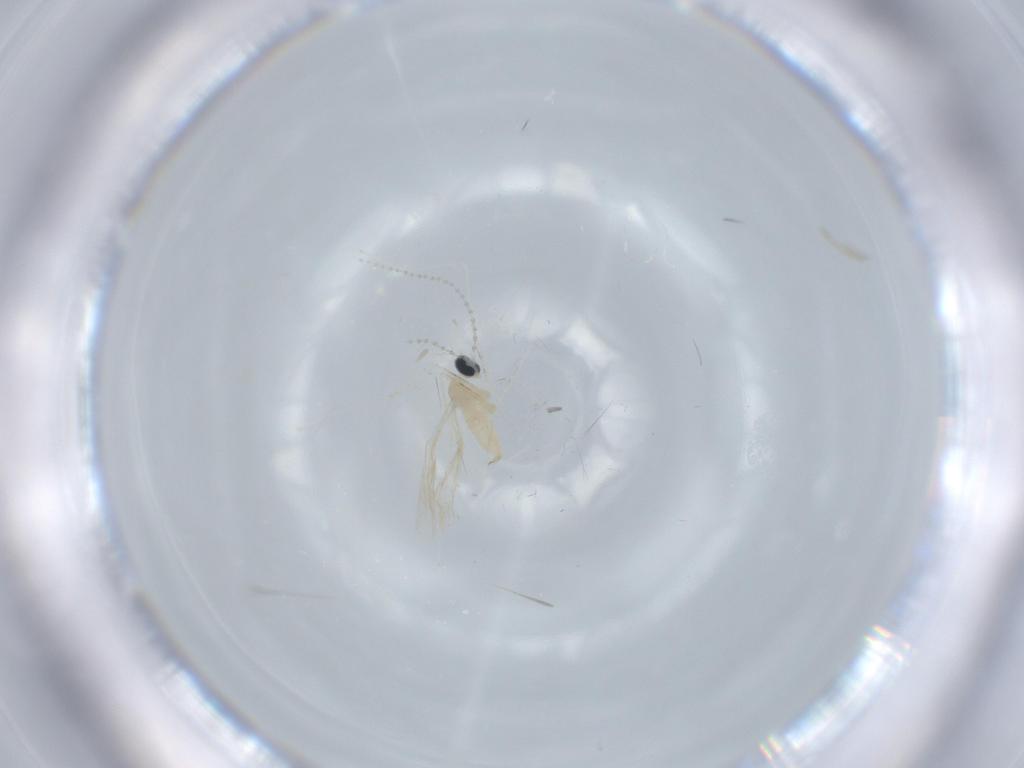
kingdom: Animalia
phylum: Arthropoda
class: Insecta
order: Diptera
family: Cecidomyiidae
